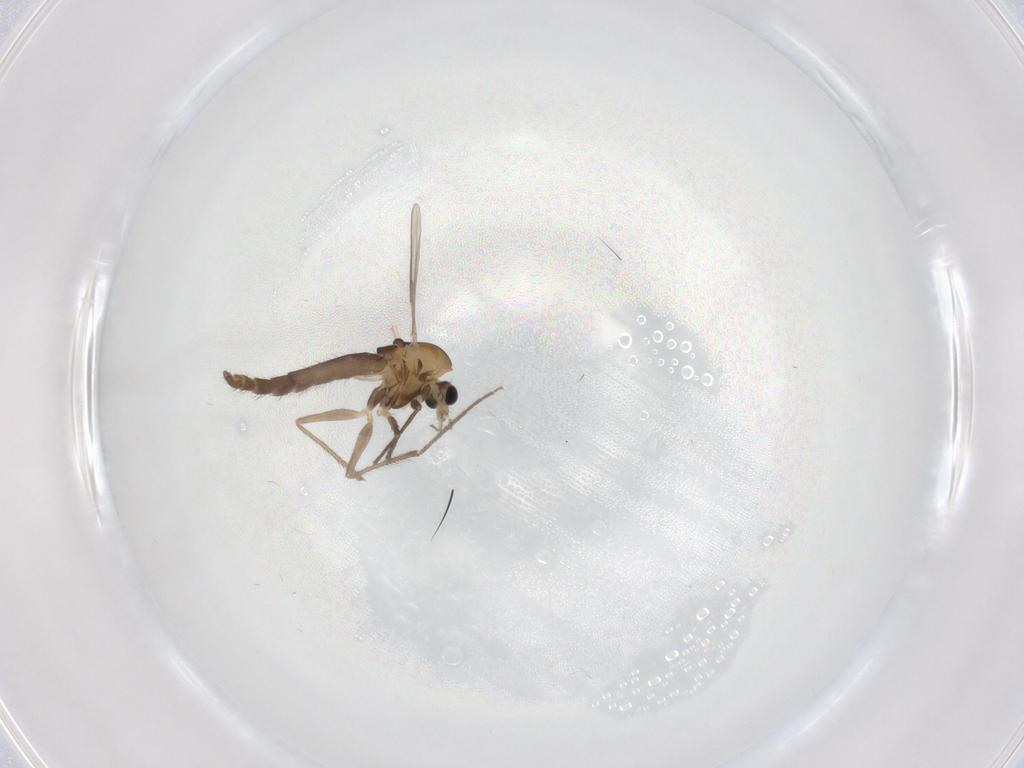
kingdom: Animalia
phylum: Arthropoda
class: Insecta
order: Diptera
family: Chironomidae
